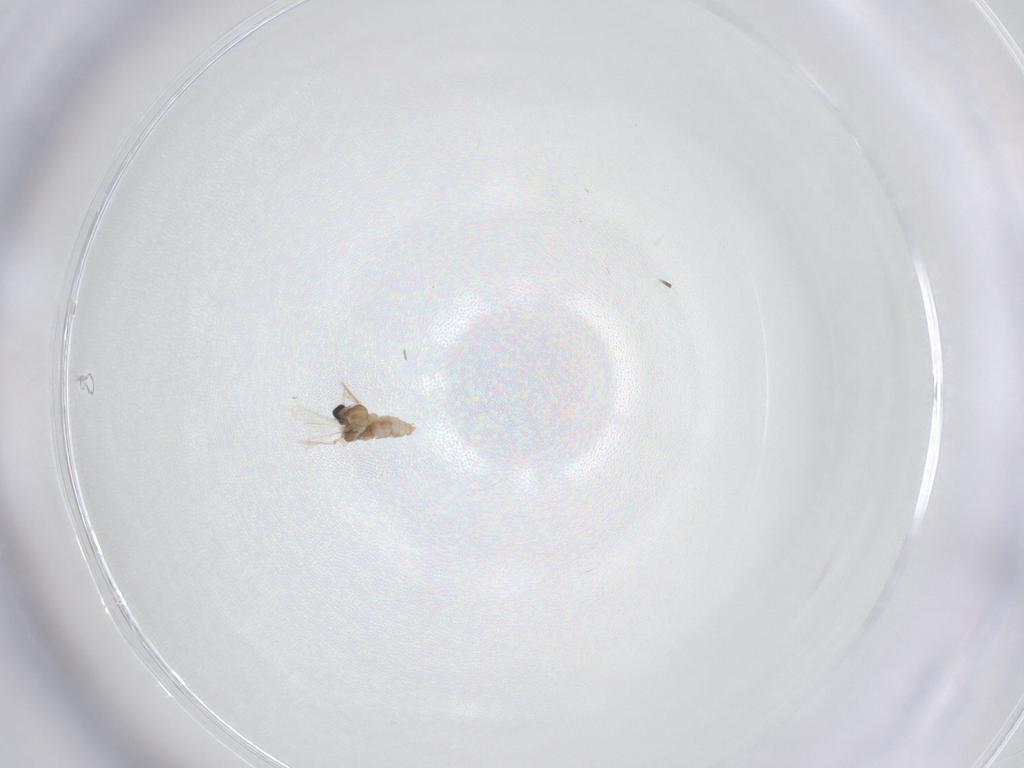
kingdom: Animalia
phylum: Arthropoda
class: Insecta
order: Diptera
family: Chironomidae
